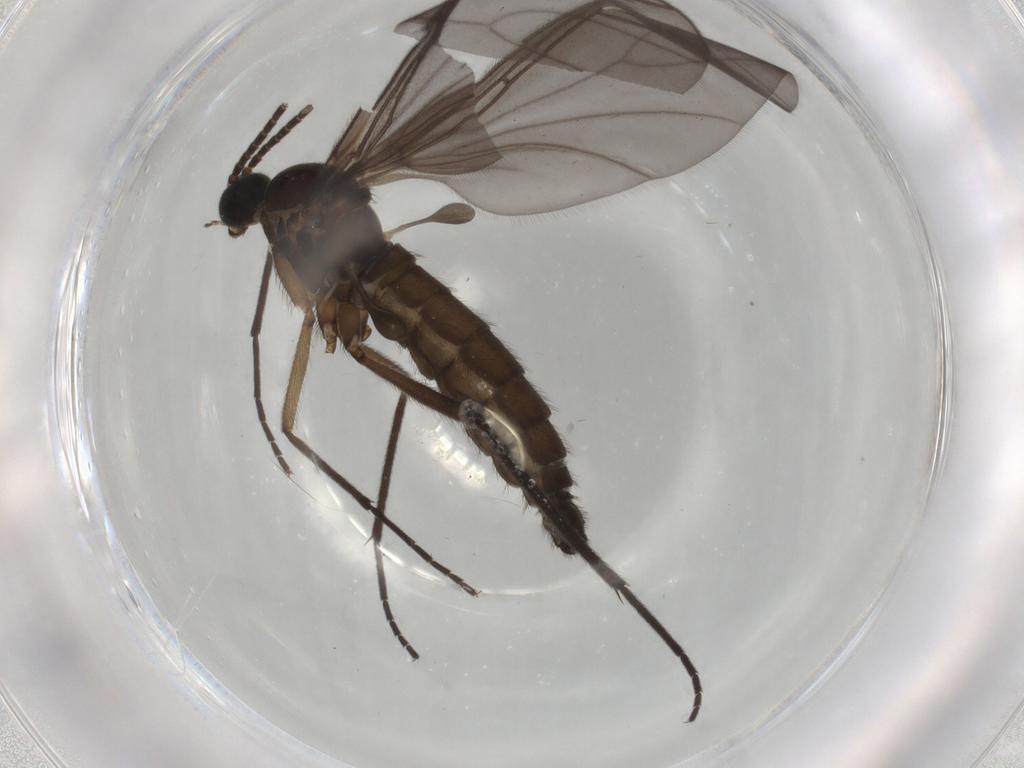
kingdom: Animalia
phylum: Arthropoda
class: Insecta
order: Diptera
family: Sciaridae
